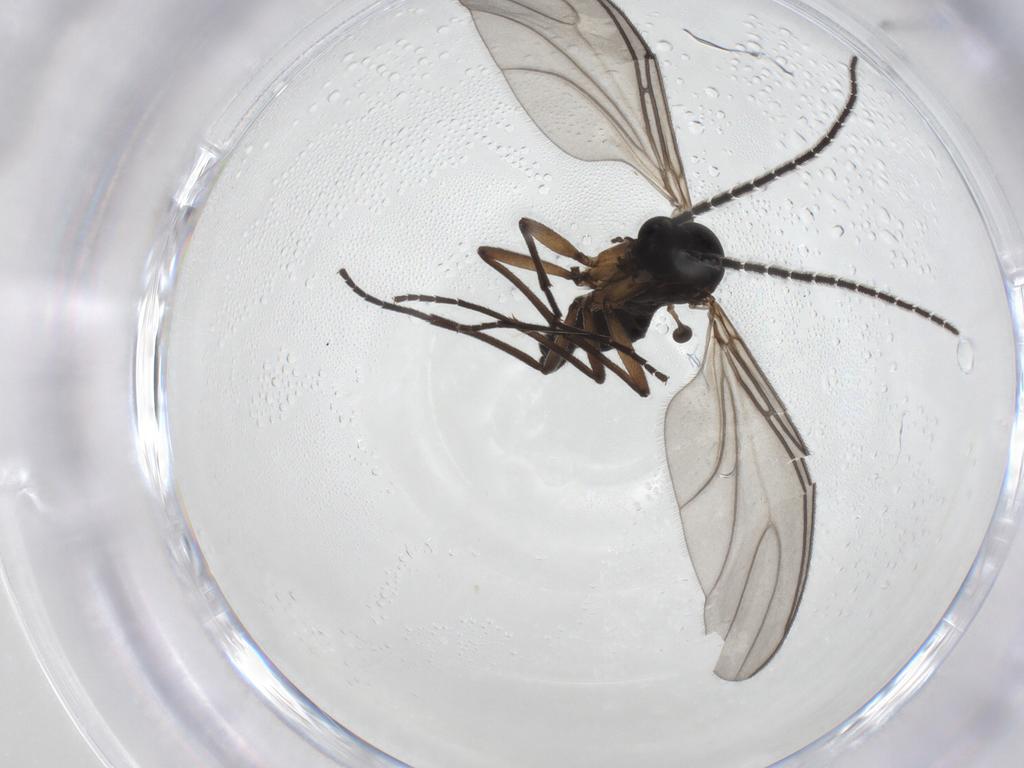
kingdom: Animalia
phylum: Arthropoda
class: Insecta
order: Diptera
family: Sciaridae
